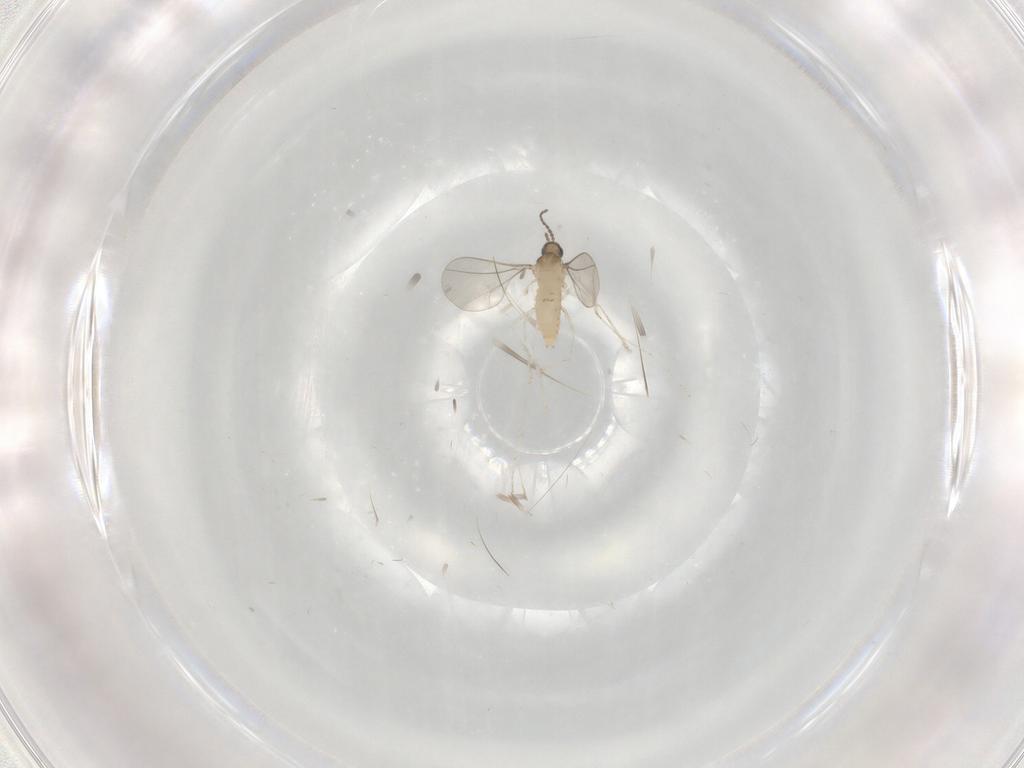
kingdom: Animalia
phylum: Arthropoda
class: Insecta
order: Diptera
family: Cecidomyiidae
